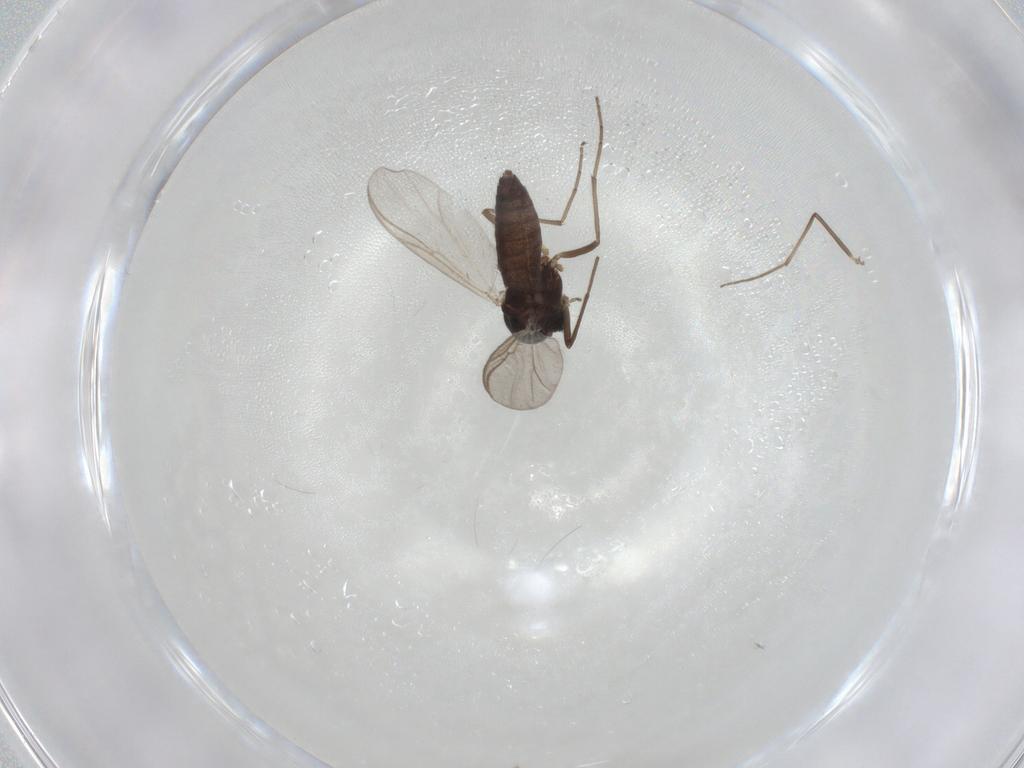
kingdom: Animalia
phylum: Arthropoda
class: Insecta
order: Diptera
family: Chironomidae
